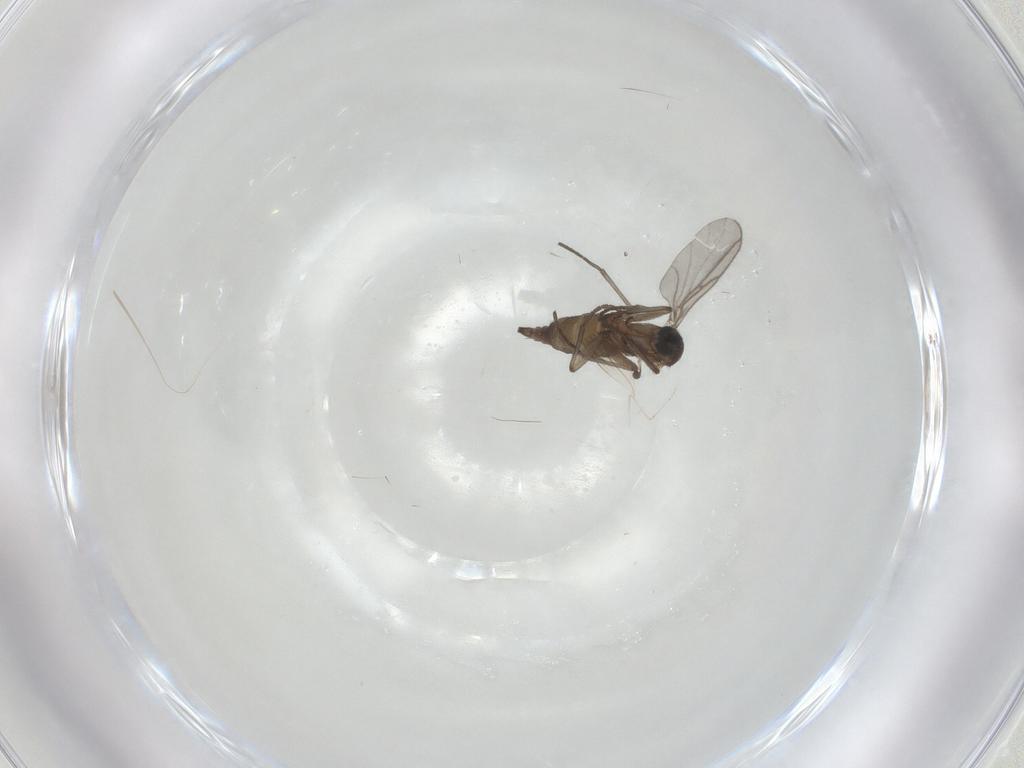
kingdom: Animalia
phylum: Arthropoda
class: Insecta
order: Diptera
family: Sciaridae
